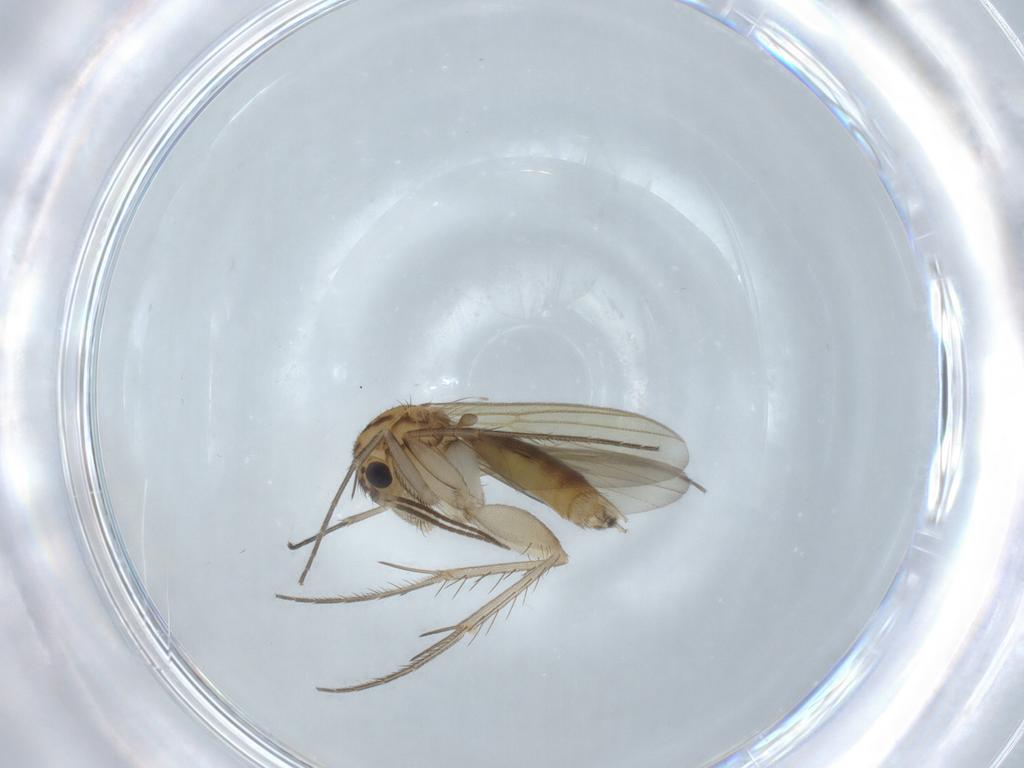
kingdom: Animalia
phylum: Arthropoda
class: Insecta
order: Diptera
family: Mycetophilidae
